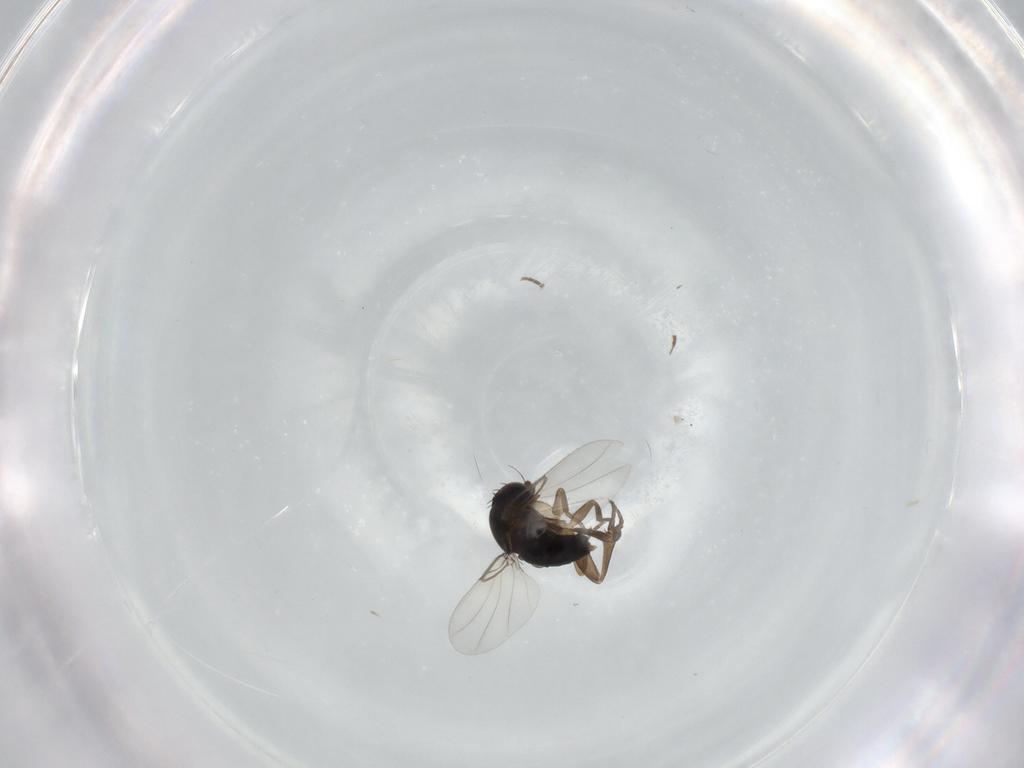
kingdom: Animalia
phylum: Arthropoda
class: Insecta
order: Diptera
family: Phoridae
